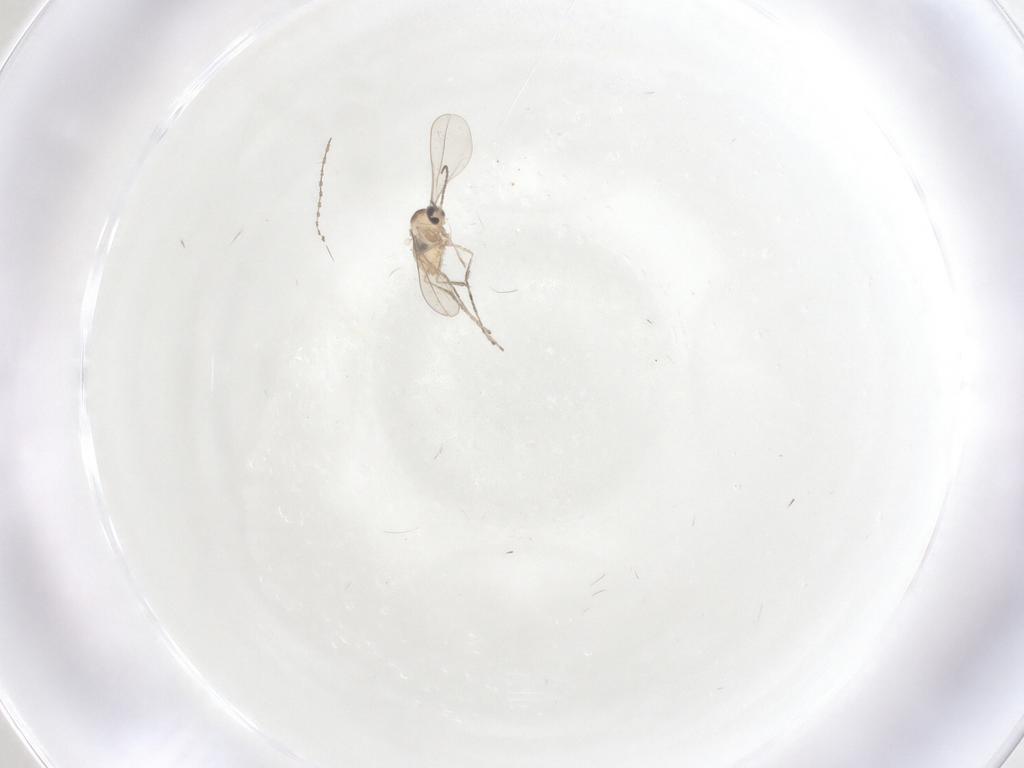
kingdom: Animalia
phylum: Arthropoda
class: Insecta
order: Diptera
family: Cecidomyiidae
